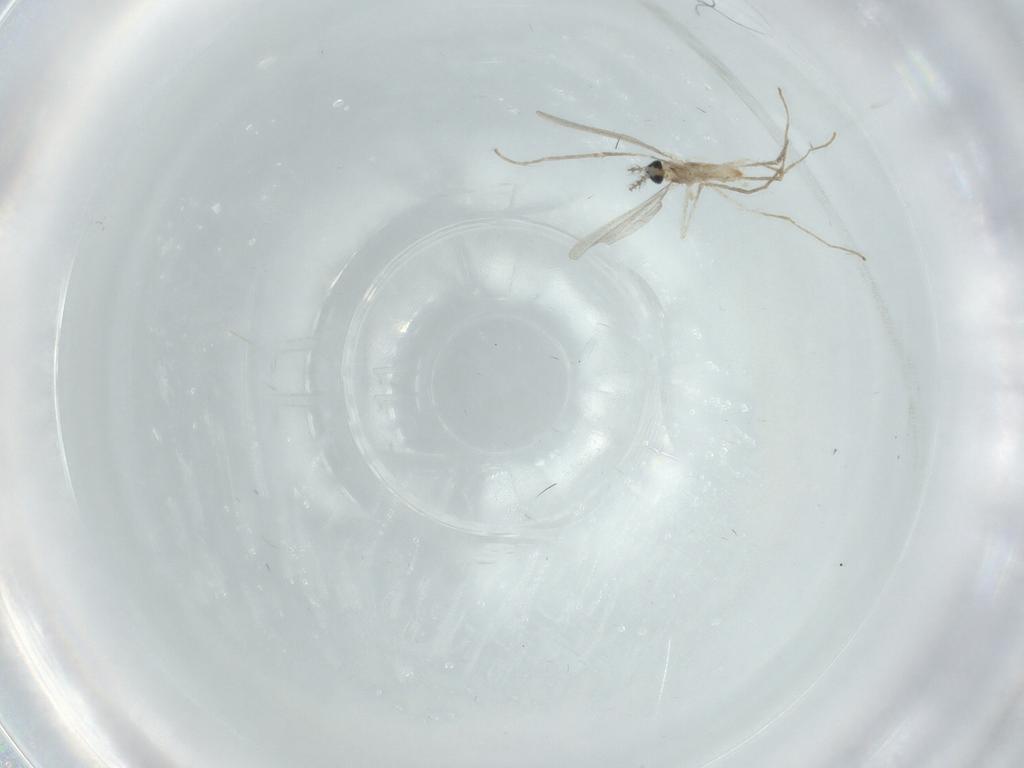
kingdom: Animalia
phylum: Arthropoda
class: Insecta
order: Diptera
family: Cecidomyiidae
